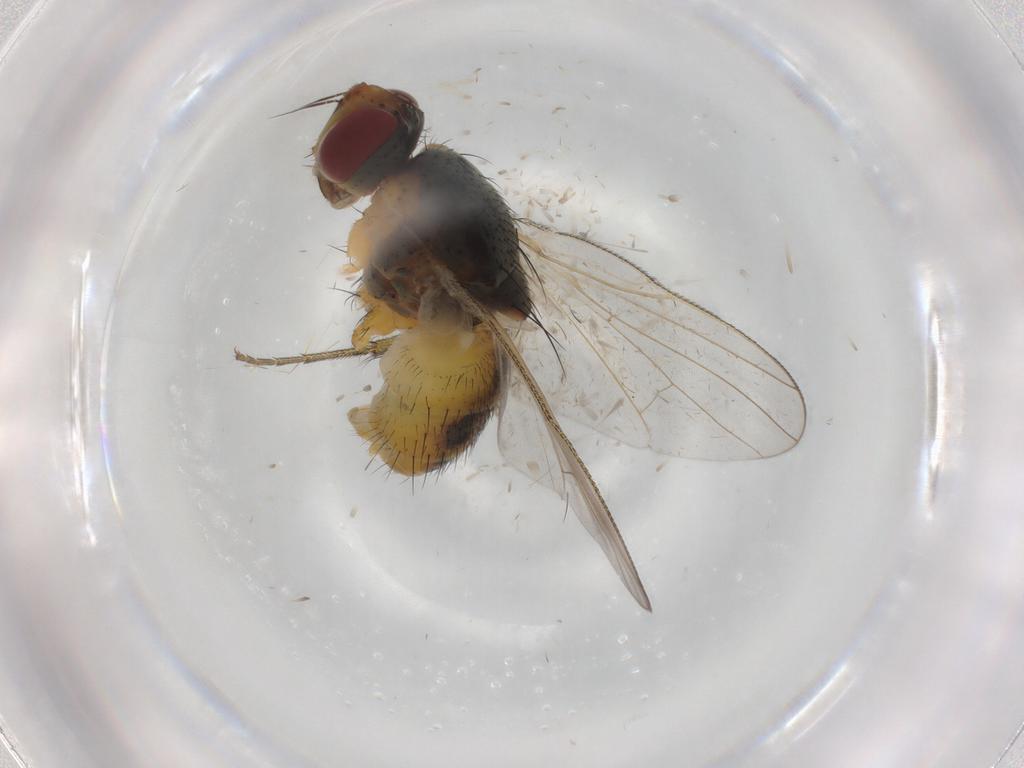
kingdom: Animalia
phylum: Arthropoda
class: Insecta
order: Diptera
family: Muscidae
